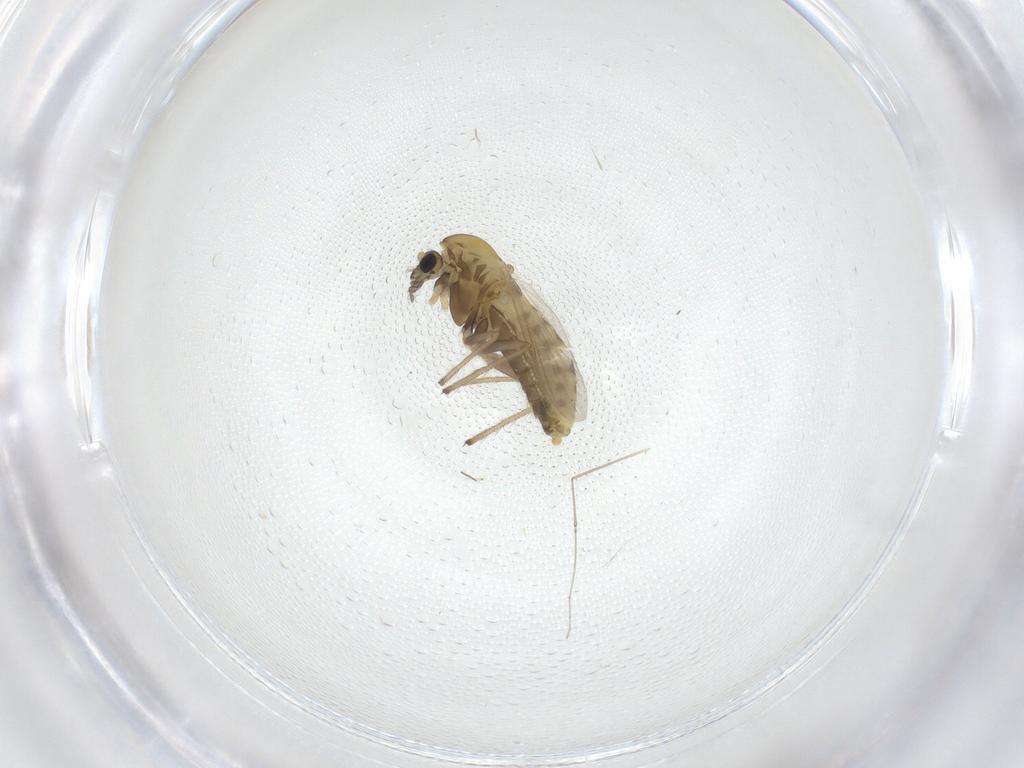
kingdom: Animalia
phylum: Arthropoda
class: Insecta
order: Diptera
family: Chironomidae
